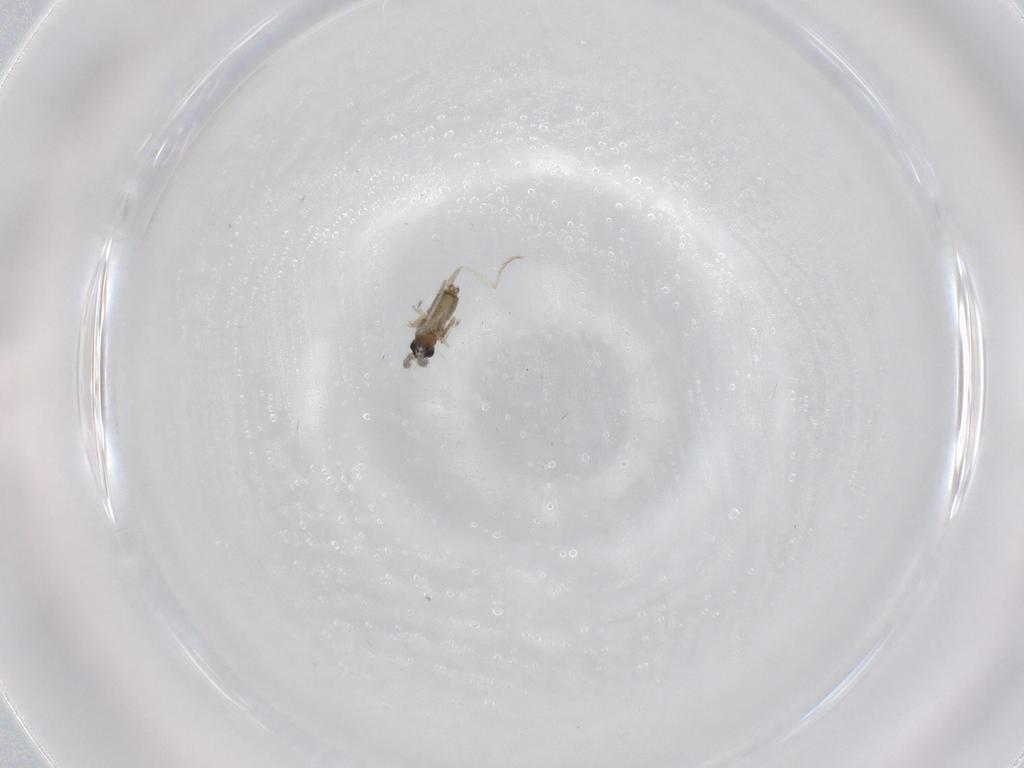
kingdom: Animalia
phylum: Arthropoda
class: Insecta
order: Diptera
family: Cecidomyiidae
